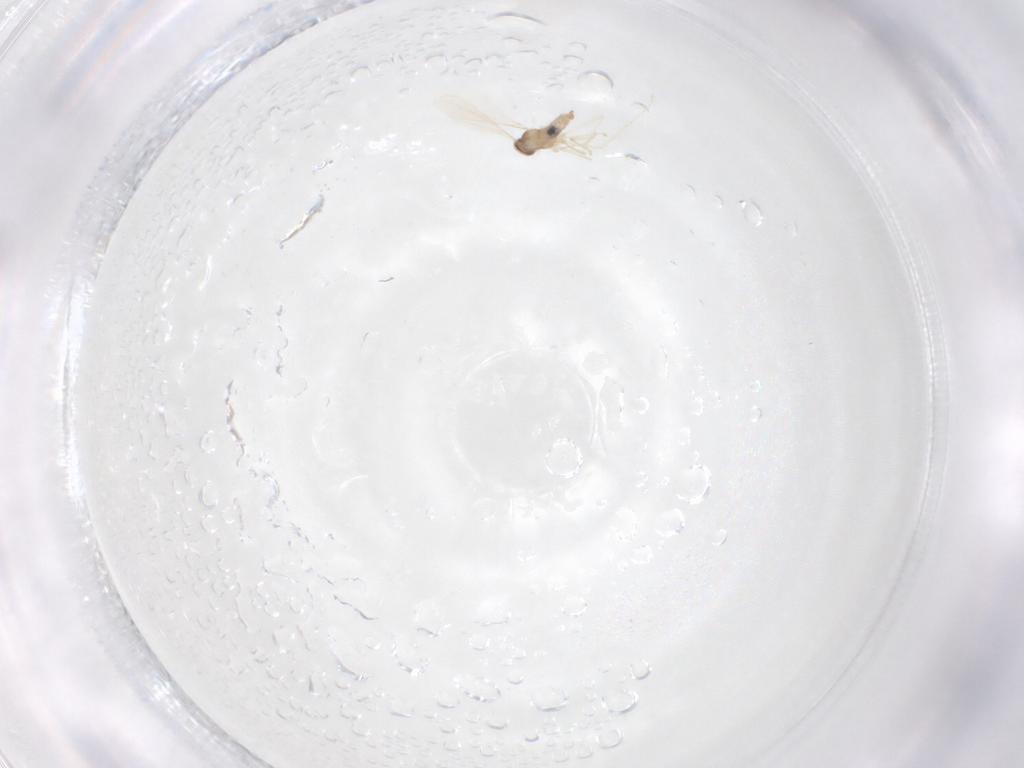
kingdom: Animalia
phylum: Arthropoda
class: Insecta
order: Diptera
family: Cecidomyiidae
